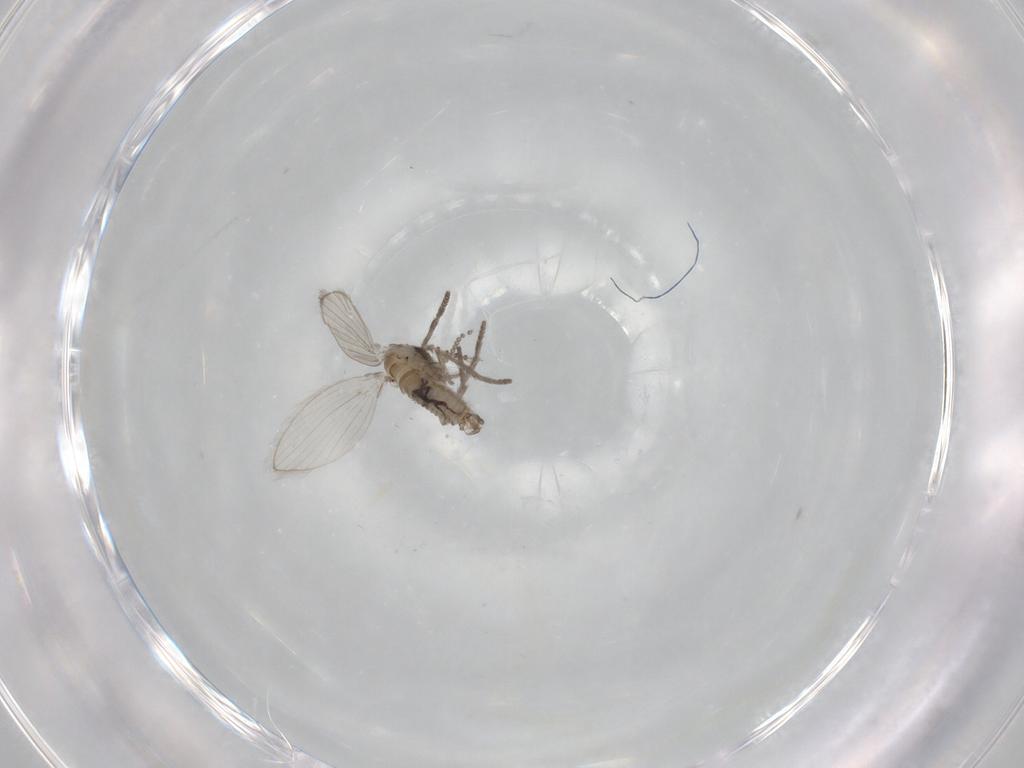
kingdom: Animalia
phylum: Arthropoda
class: Insecta
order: Diptera
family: Psychodidae
